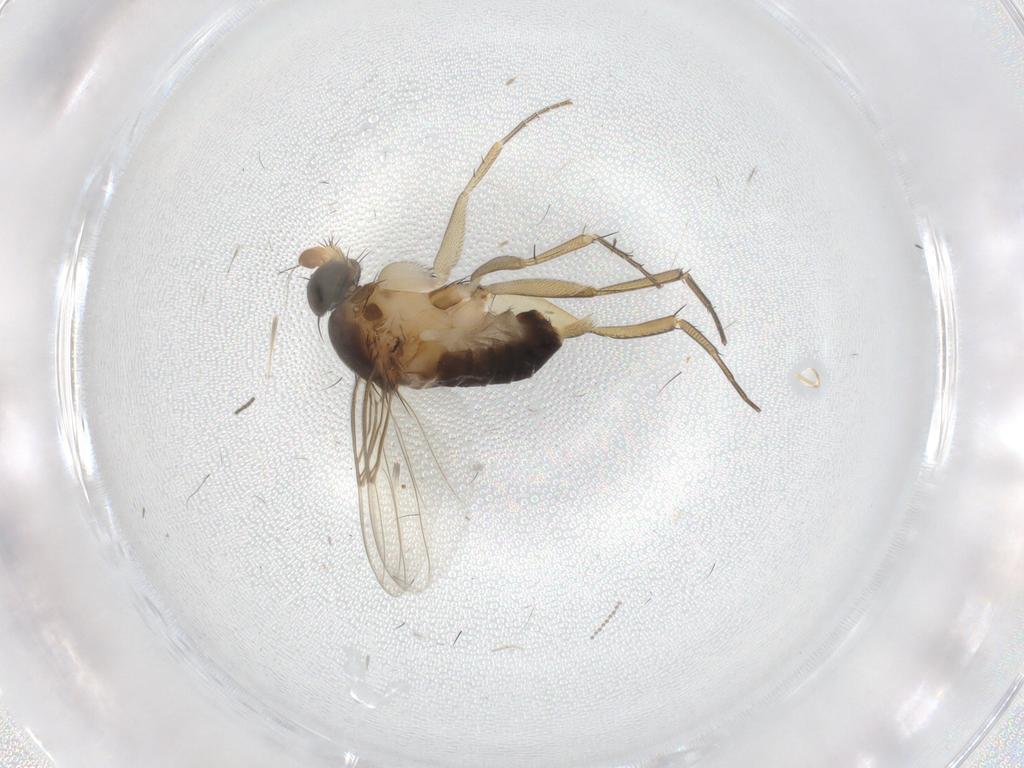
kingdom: Animalia
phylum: Arthropoda
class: Insecta
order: Diptera
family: Phoridae
